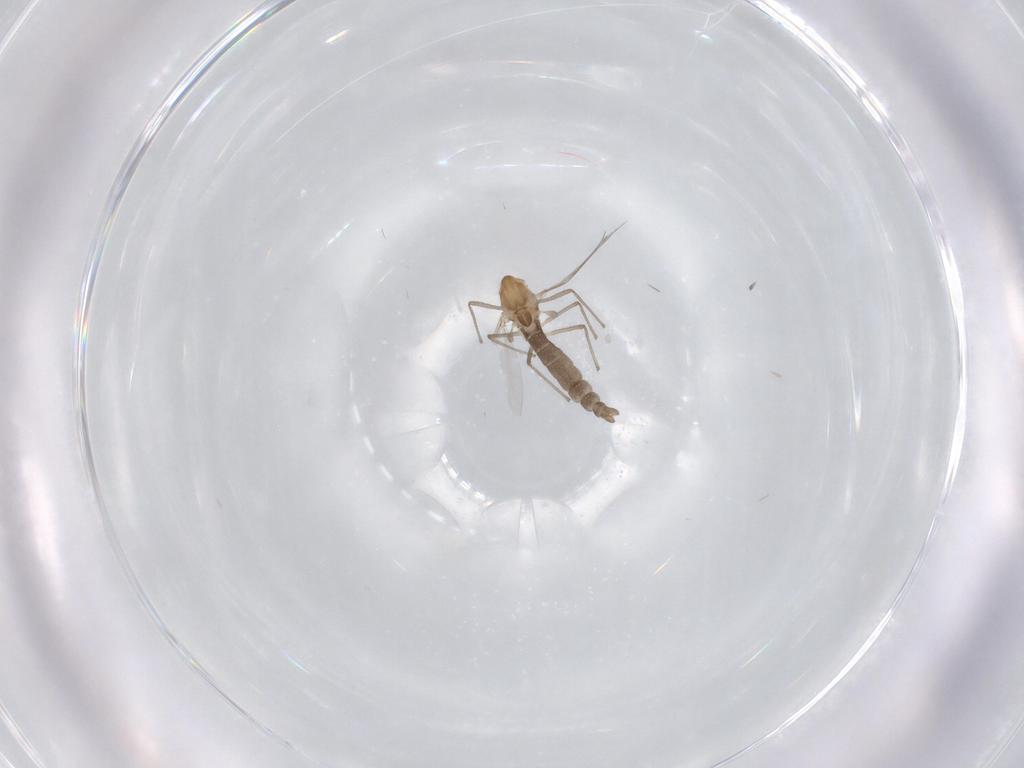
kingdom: Animalia
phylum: Arthropoda
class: Insecta
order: Diptera
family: Chironomidae
